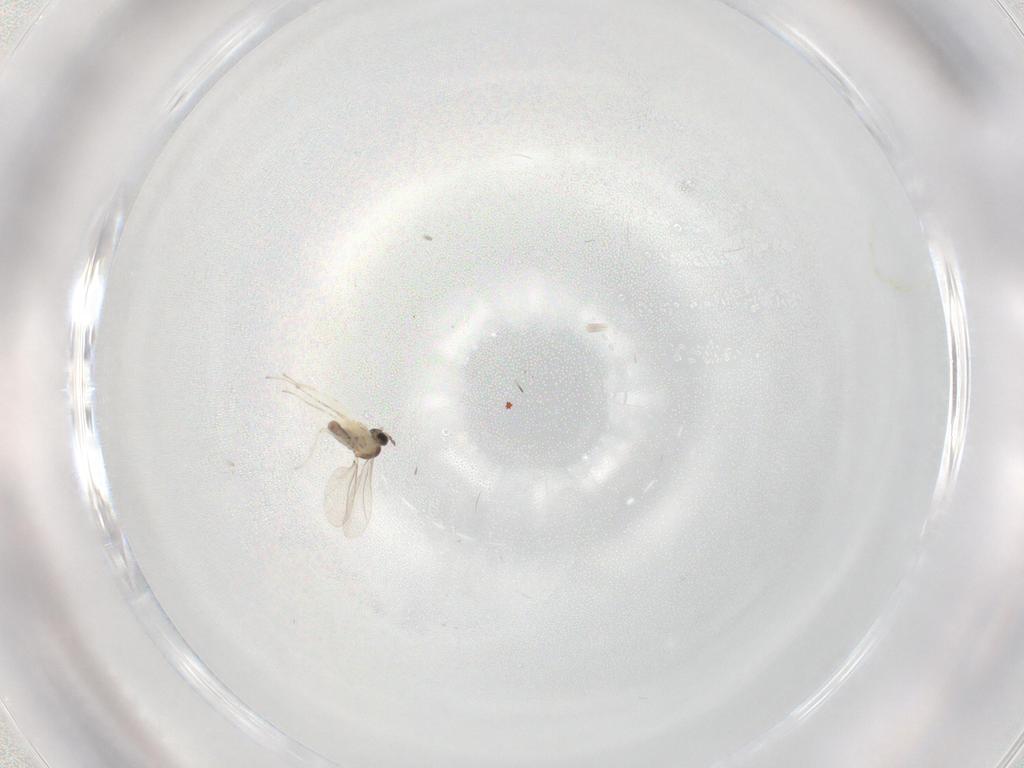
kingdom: Animalia
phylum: Arthropoda
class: Insecta
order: Diptera
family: Cecidomyiidae
